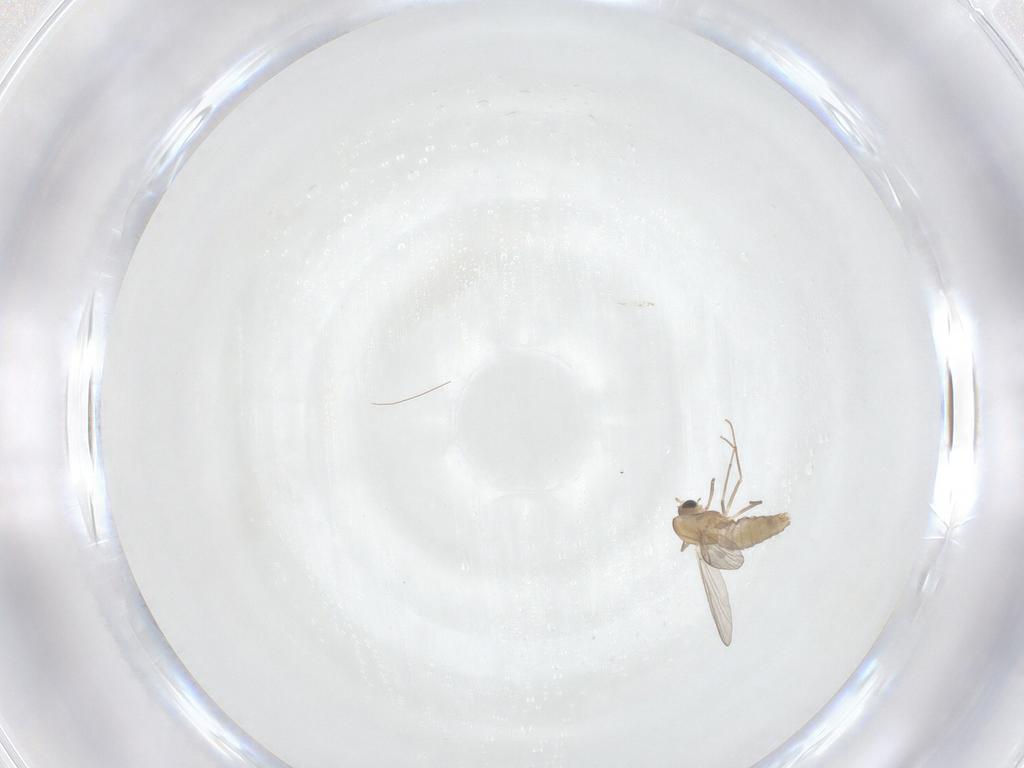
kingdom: Animalia
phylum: Arthropoda
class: Insecta
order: Diptera
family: Chironomidae
